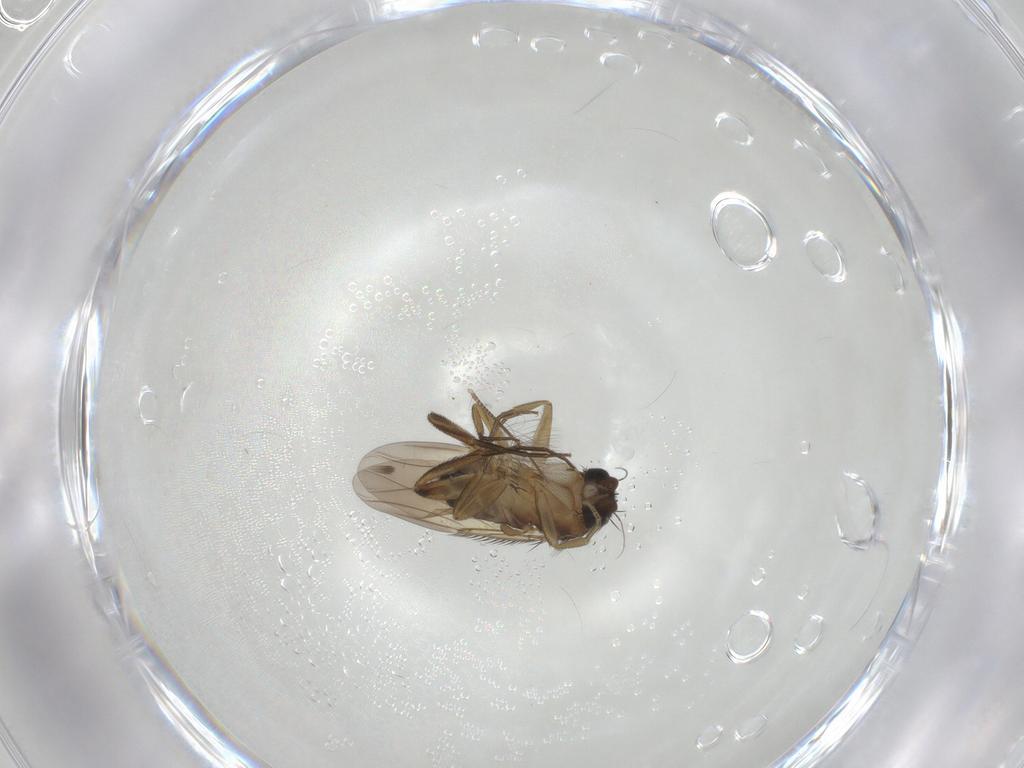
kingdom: Animalia
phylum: Arthropoda
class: Insecta
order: Diptera
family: Phoridae
